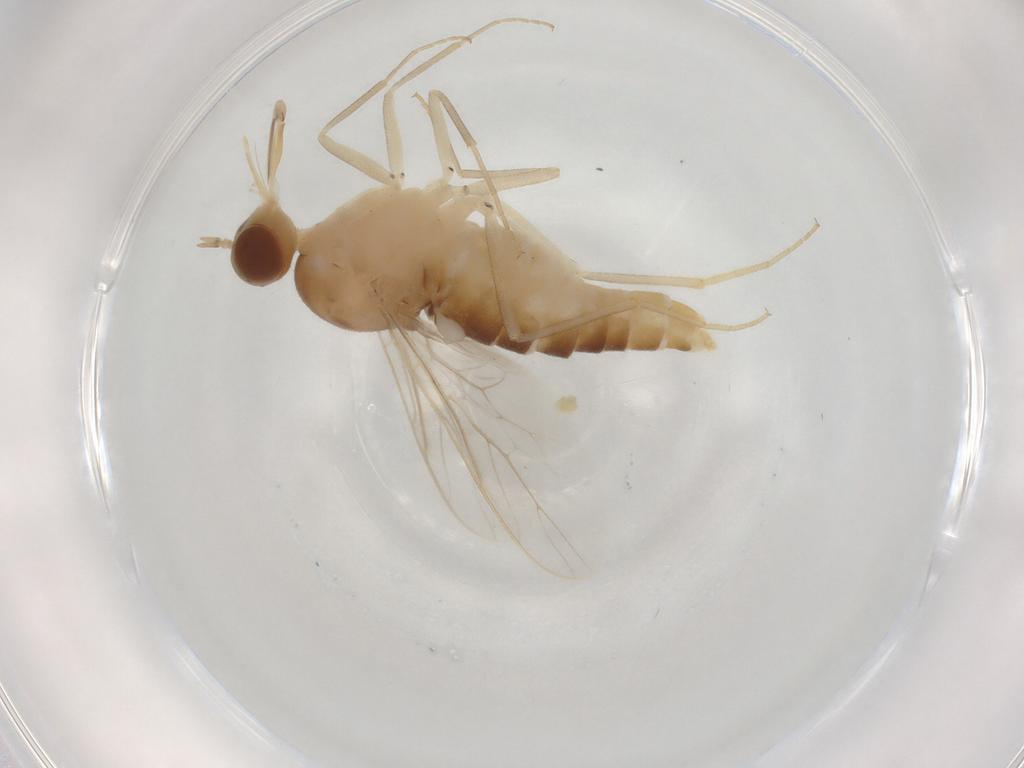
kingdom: Animalia
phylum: Arthropoda
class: Insecta
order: Diptera
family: Empididae
